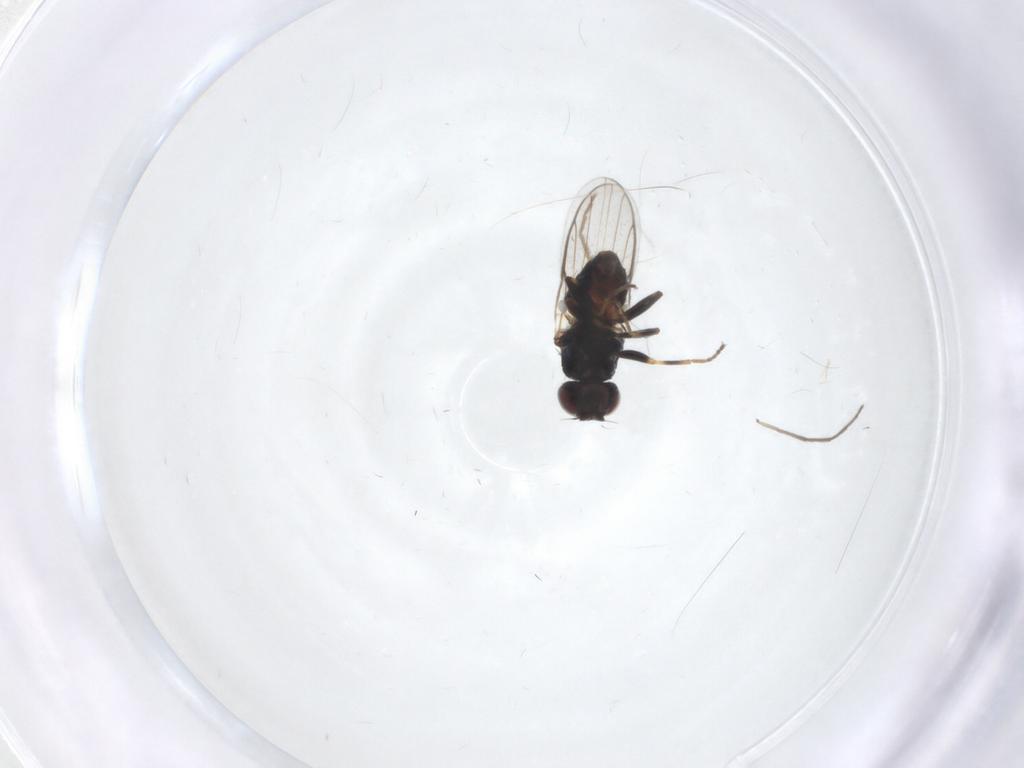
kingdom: Animalia
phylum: Arthropoda
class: Insecta
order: Diptera
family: Chloropidae
